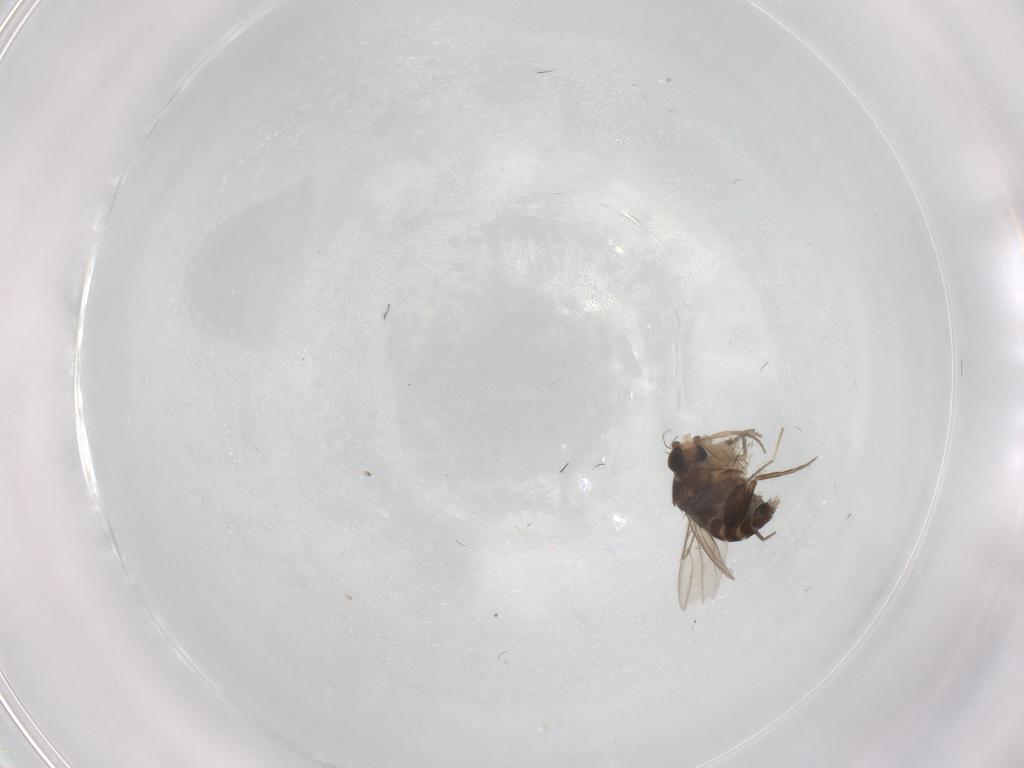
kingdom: Animalia
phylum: Arthropoda
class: Insecta
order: Diptera
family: Phoridae
